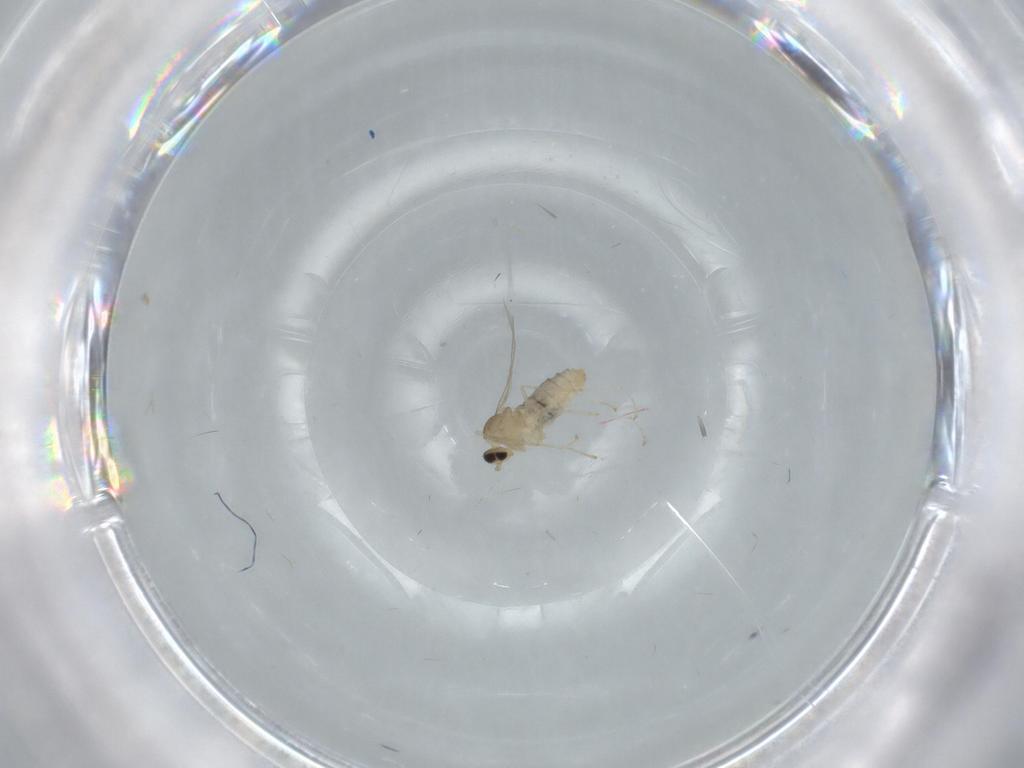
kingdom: Animalia
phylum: Arthropoda
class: Insecta
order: Diptera
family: Cecidomyiidae
